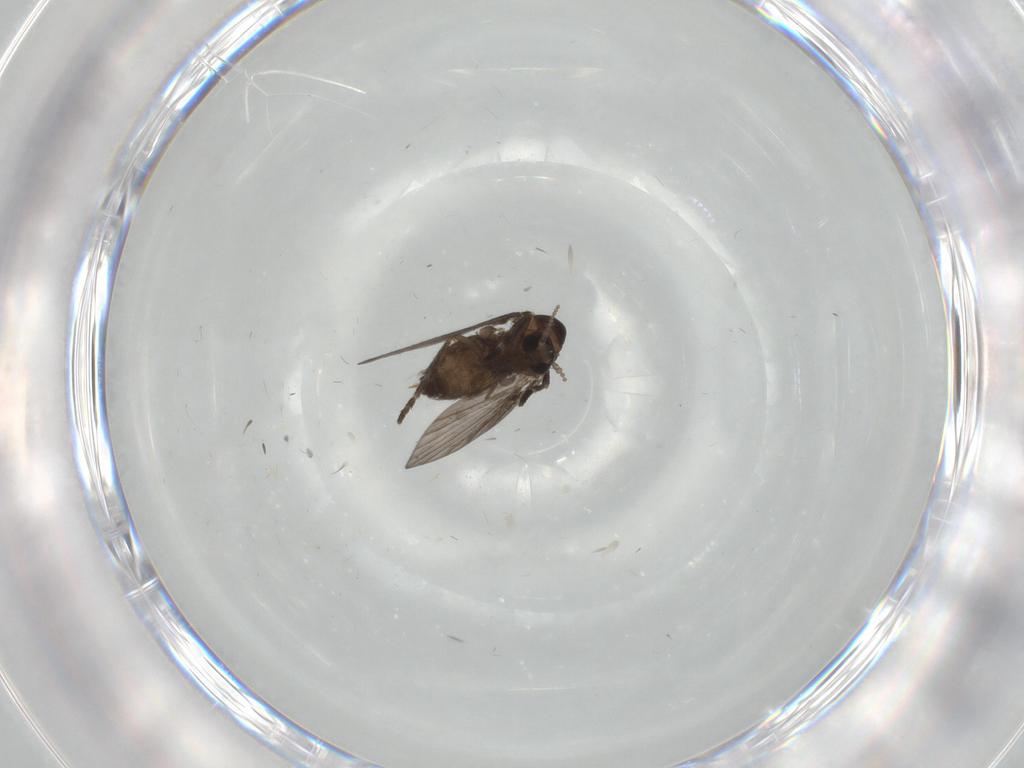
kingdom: Animalia
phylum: Arthropoda
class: Insecta
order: Diptera
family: Psychodidae
